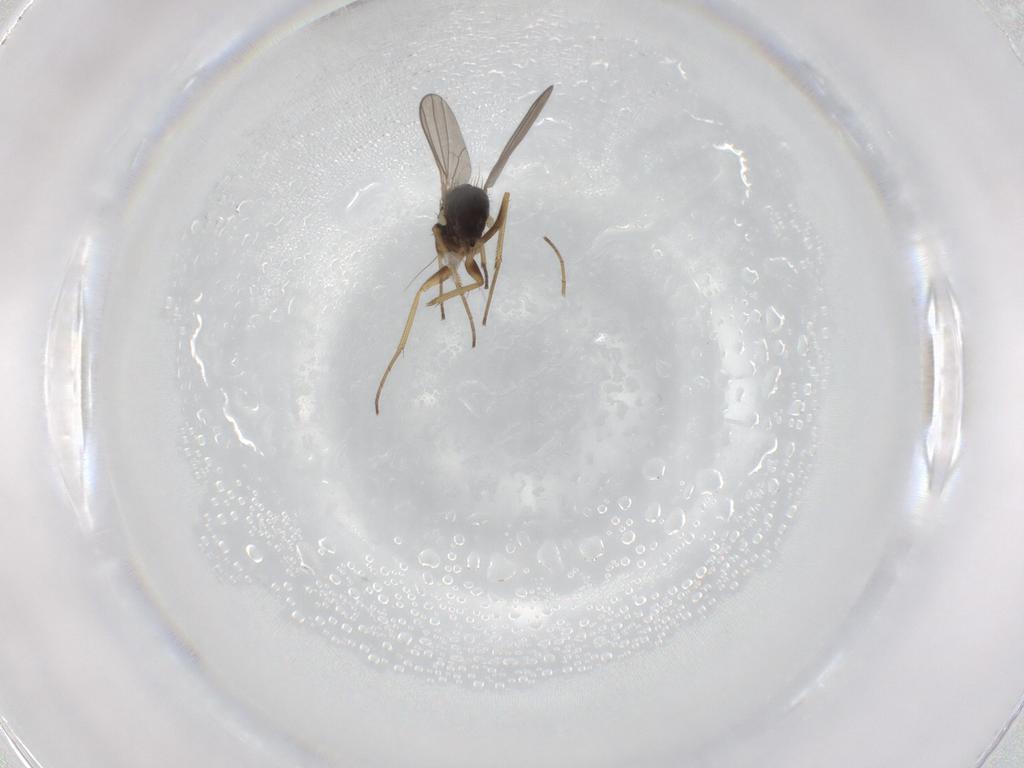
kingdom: Animalia
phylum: Arthropoda
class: Insecta
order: Diptera
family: Dolichopodidae
